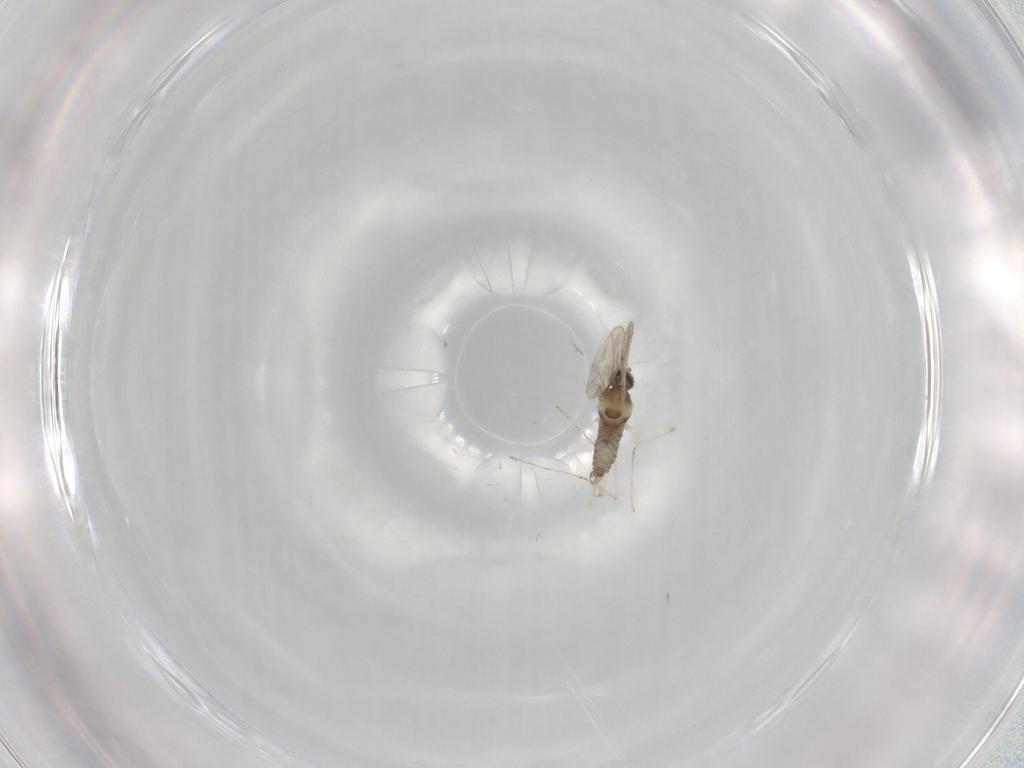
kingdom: Animalia
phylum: Arthropoda
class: Insecta
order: Diptera
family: Cecidomyiidae
